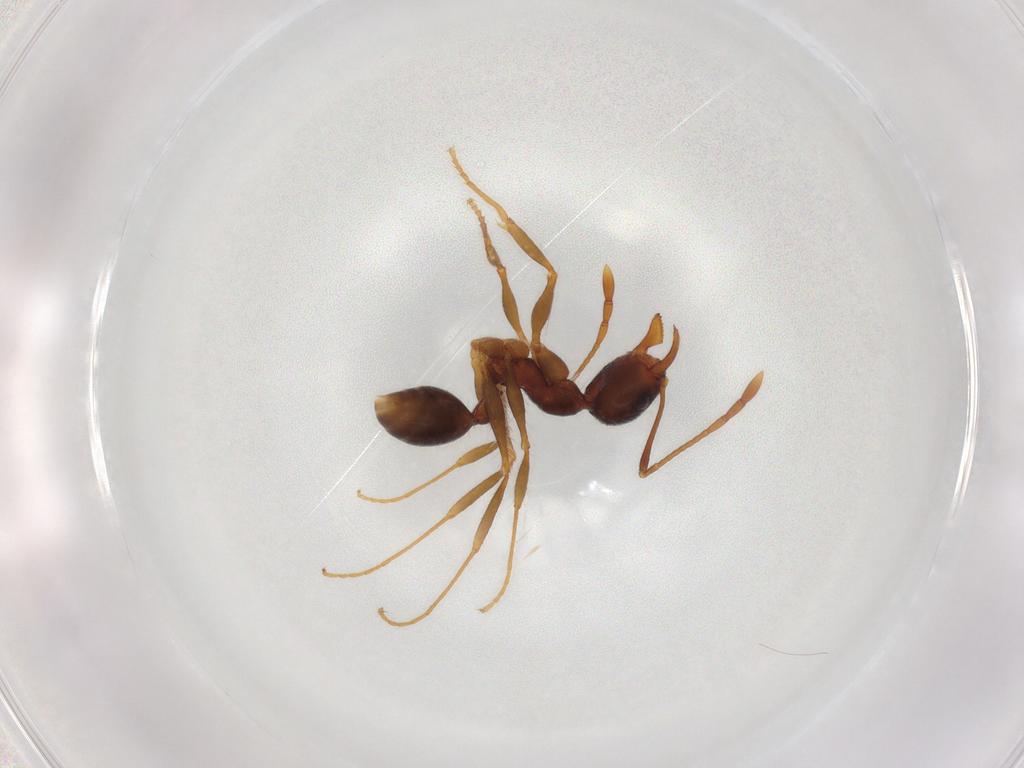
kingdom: Animalia
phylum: Arthropoda
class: Insecta
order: Hymenoptera
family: Formicidae
